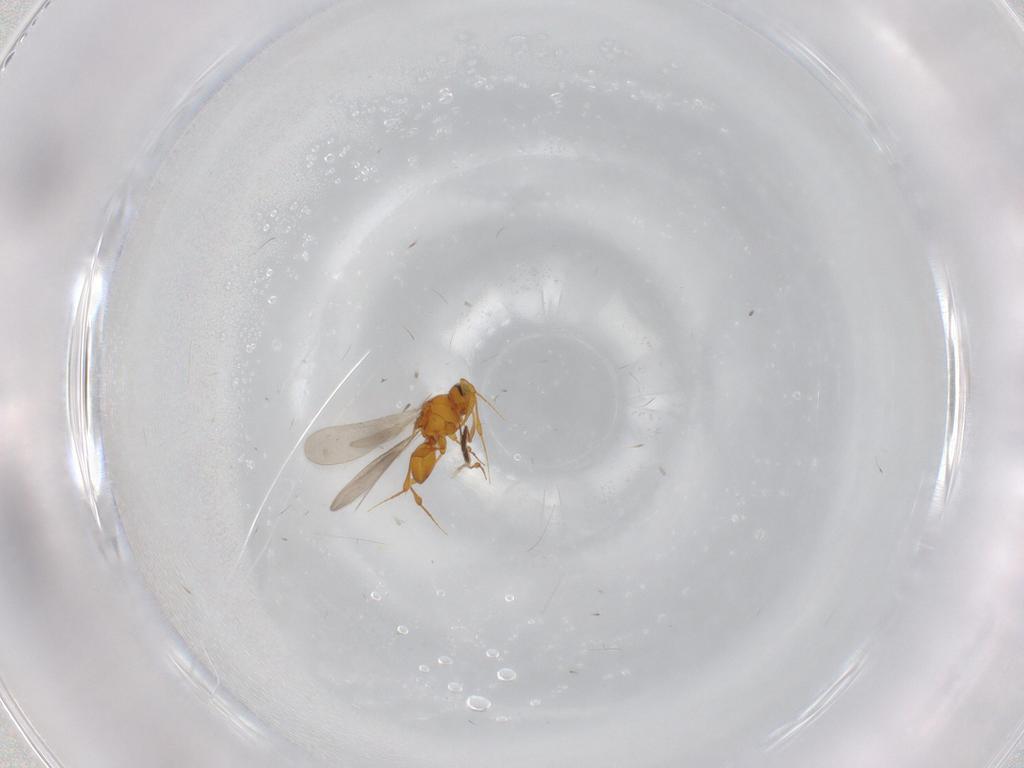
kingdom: Animalia
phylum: Arthropoda
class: Insecta
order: Hymenoptera
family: Platygastridae
